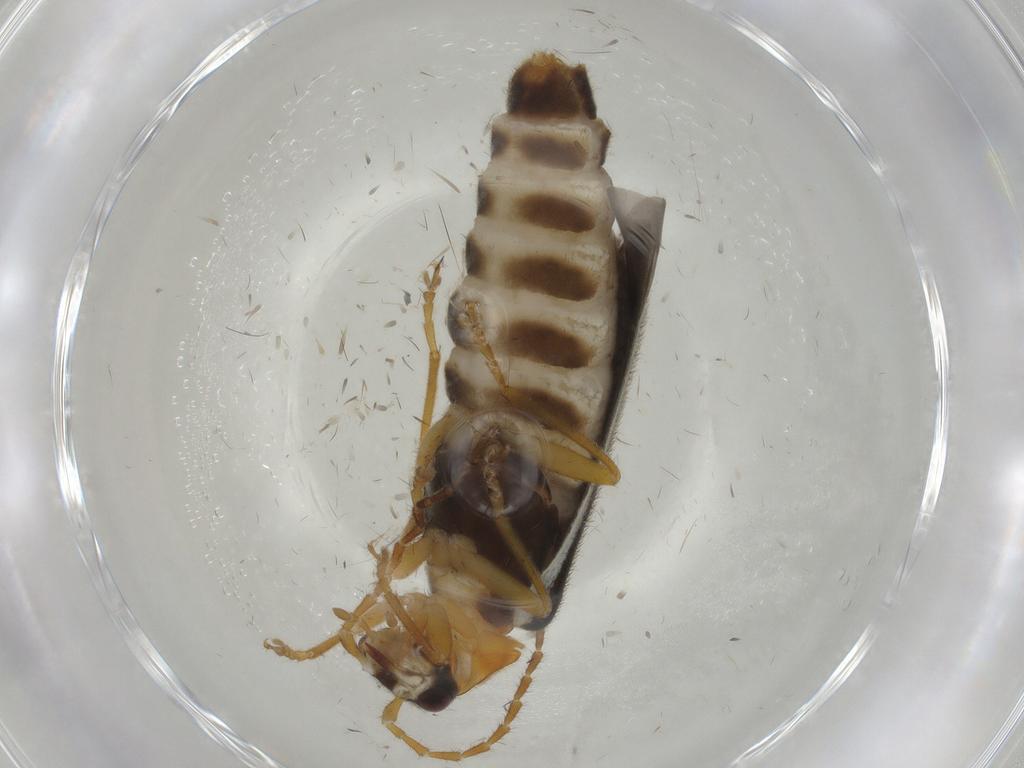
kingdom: Animalia
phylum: Arthropoda
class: Insecta
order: Coleoptera
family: Cantharidae
